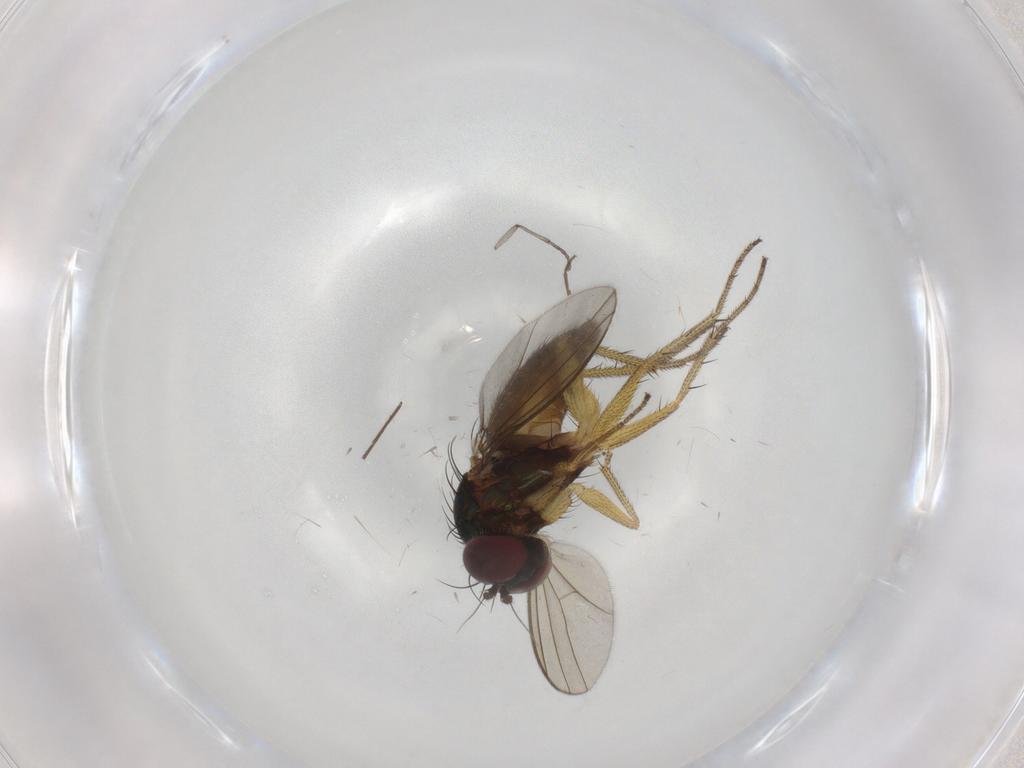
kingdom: Animalia
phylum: Arthropoda
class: Insecta
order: Diptera
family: Sciaridae
